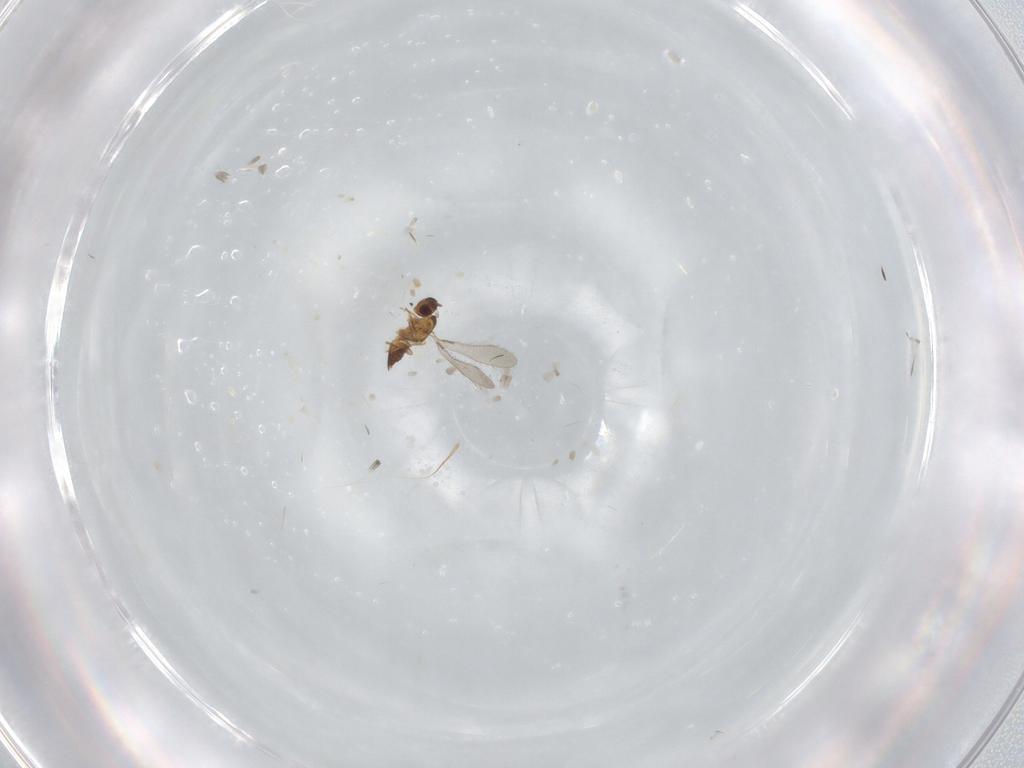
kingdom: Animalia
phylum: Arthropoda
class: Insecta
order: Hymenoptera
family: Mymaridae
